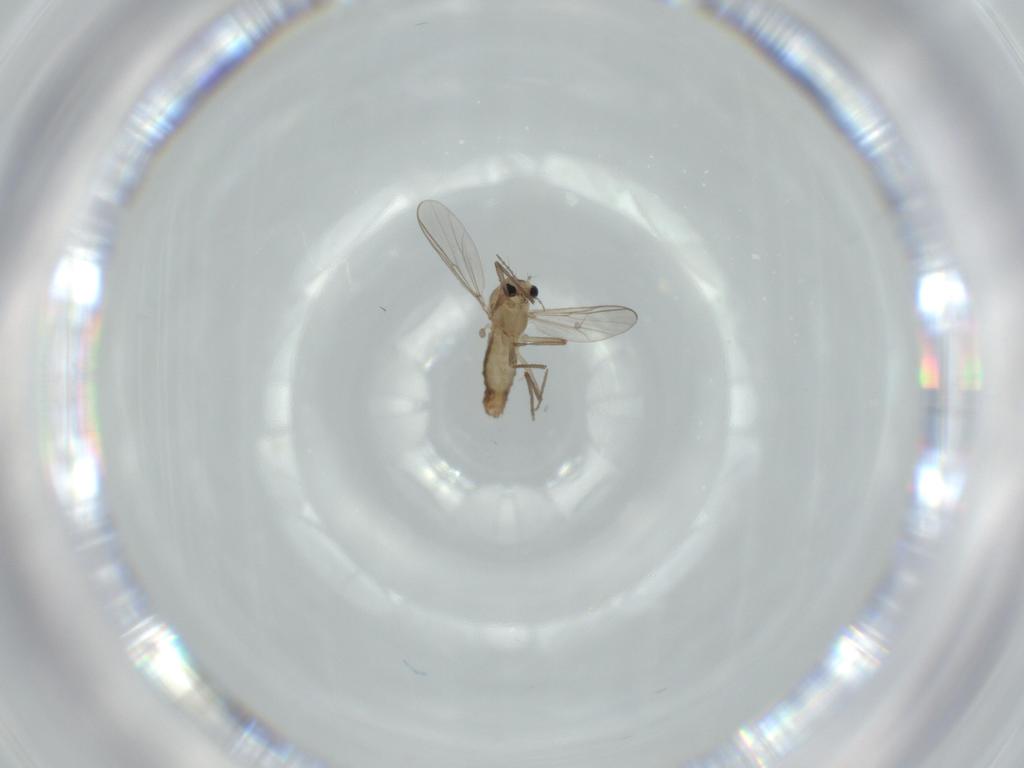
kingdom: Animalia
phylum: Arthropoda
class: Insecta
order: Diptera
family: Chironomidae
